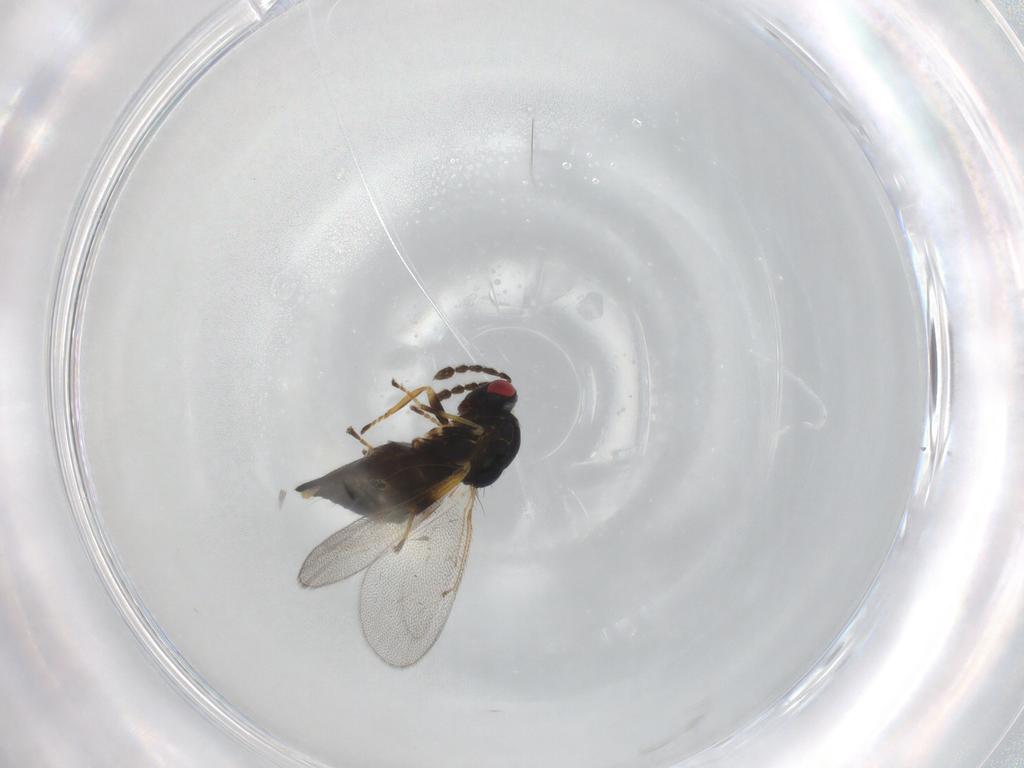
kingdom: Animalia
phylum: Arthropoda
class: Insecta
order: Hymenoptera
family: Eulophidae
